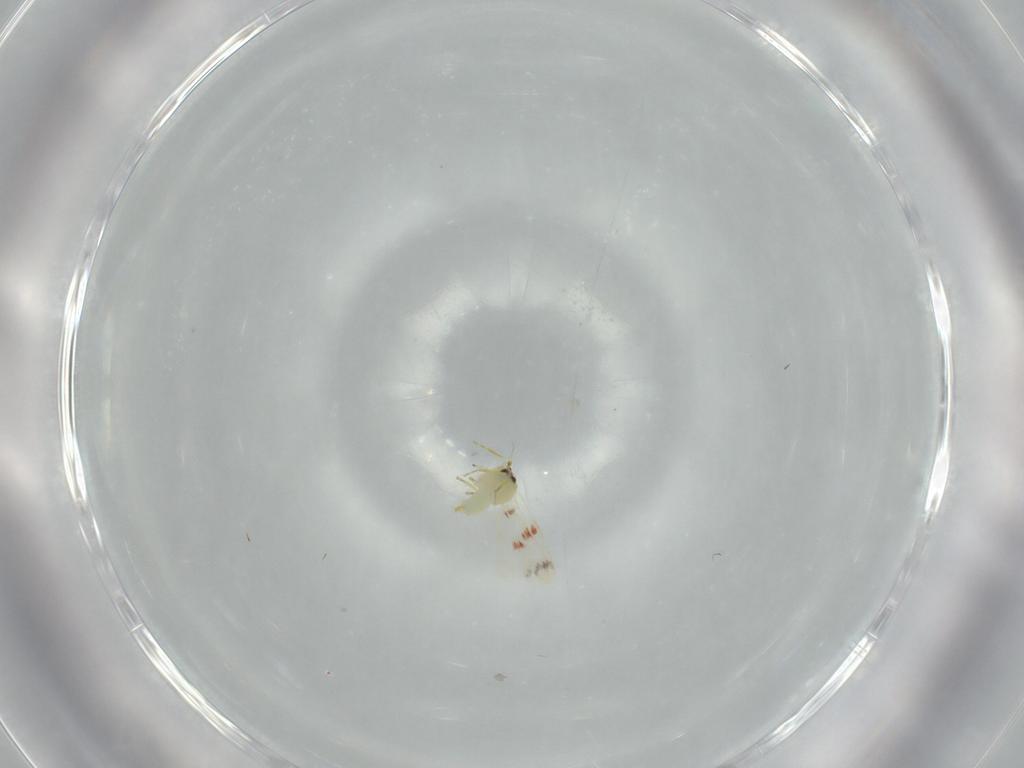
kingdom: Animalia
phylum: Arthropoda
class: Insecta
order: Hemiptera
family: Aleyrodidae
